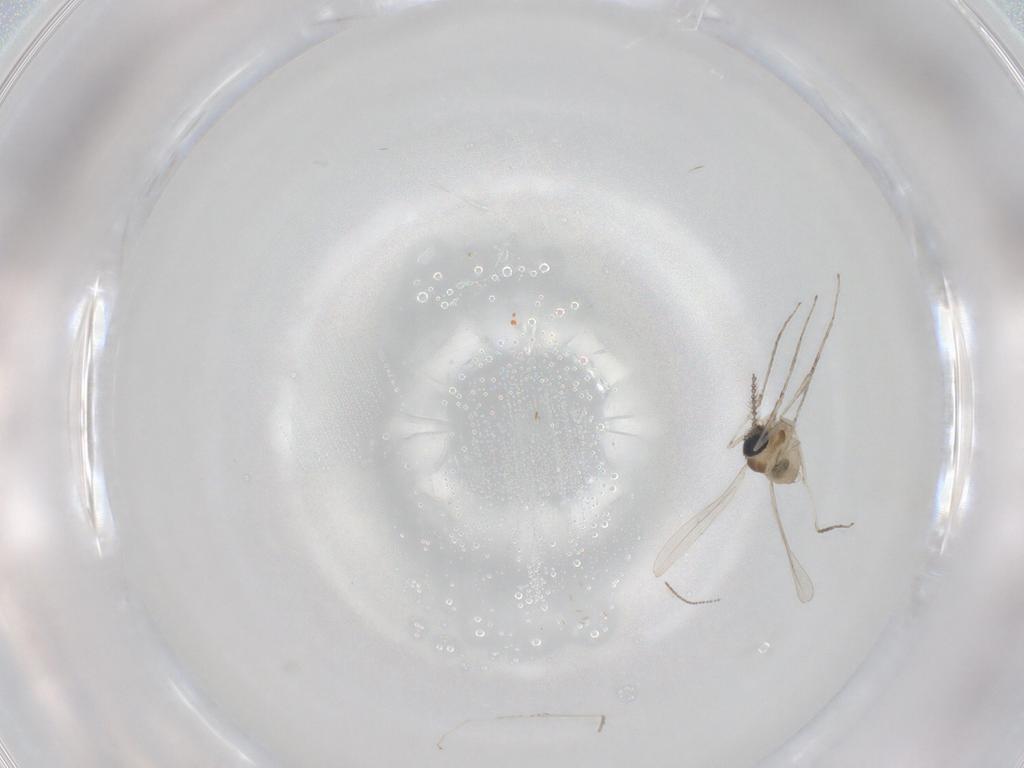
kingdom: Animalia
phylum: Arthropoda
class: Insecta
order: Diptera
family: Cecidomyiidae
